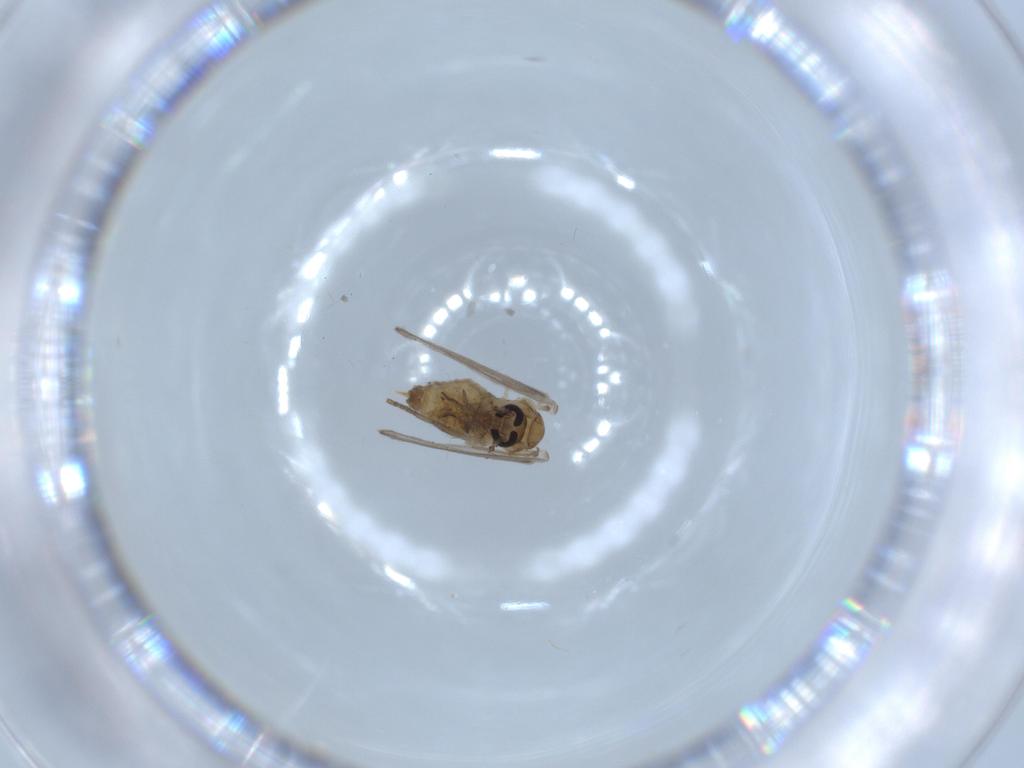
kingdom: Animalia
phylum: Arthropoda
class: Insecta
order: Diptera
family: Psychodidae
